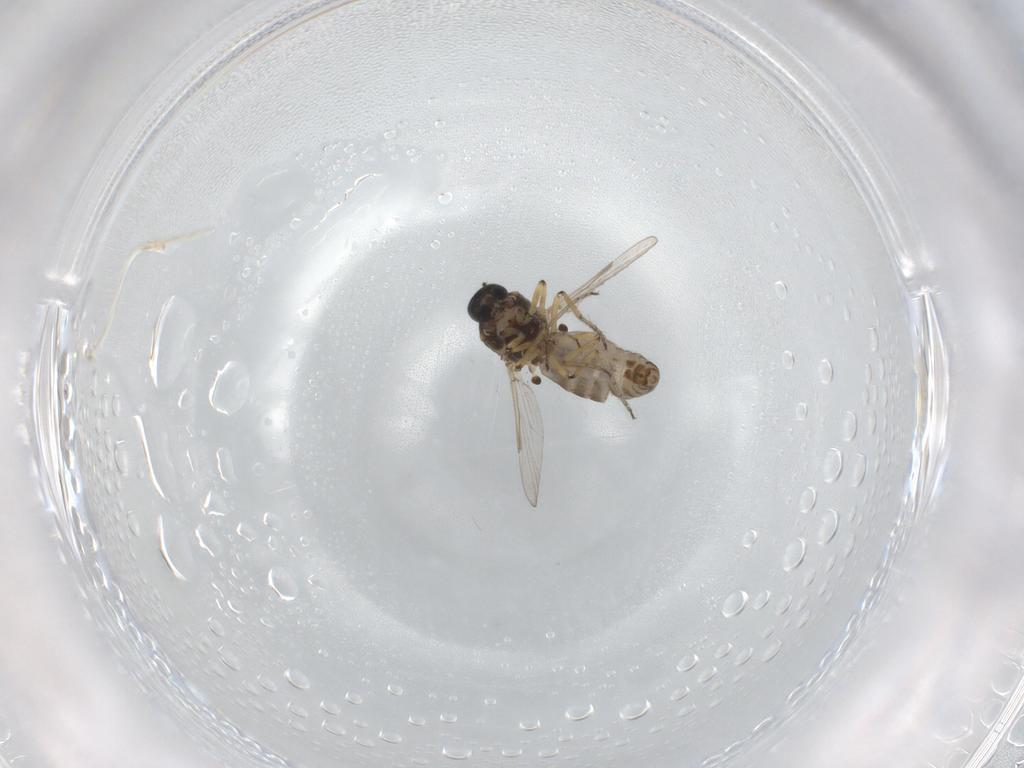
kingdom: Animalia
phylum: Arthropoda
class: Insecta
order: Diptera
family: Ceratopogonidae
